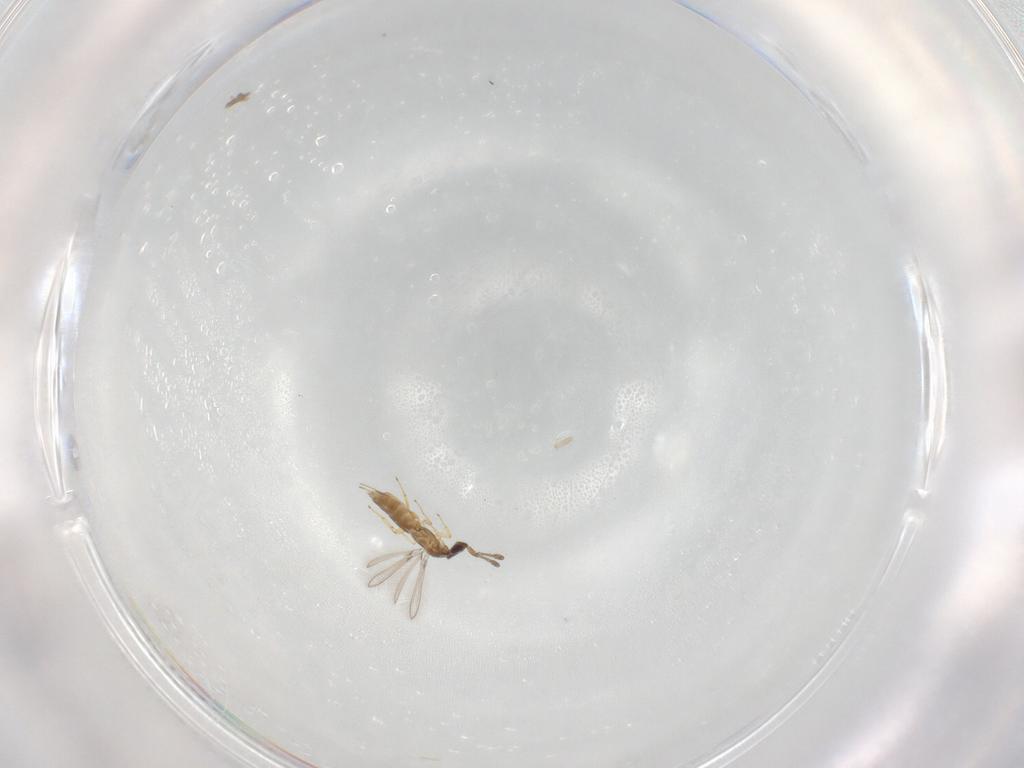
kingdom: Animalia
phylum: Arthropoda
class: Insecta
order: Hymenoptera
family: Mymaridae
